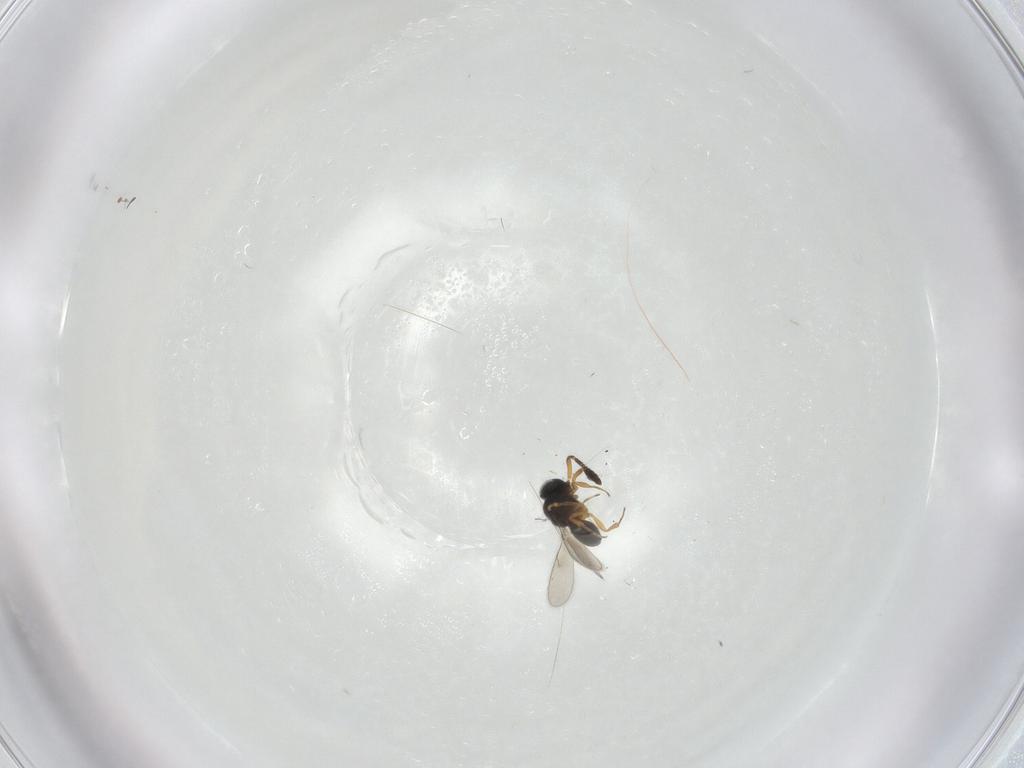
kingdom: Animalia
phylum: Arthropoda
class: Insecta
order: Hymenoptera
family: Scelionidae
